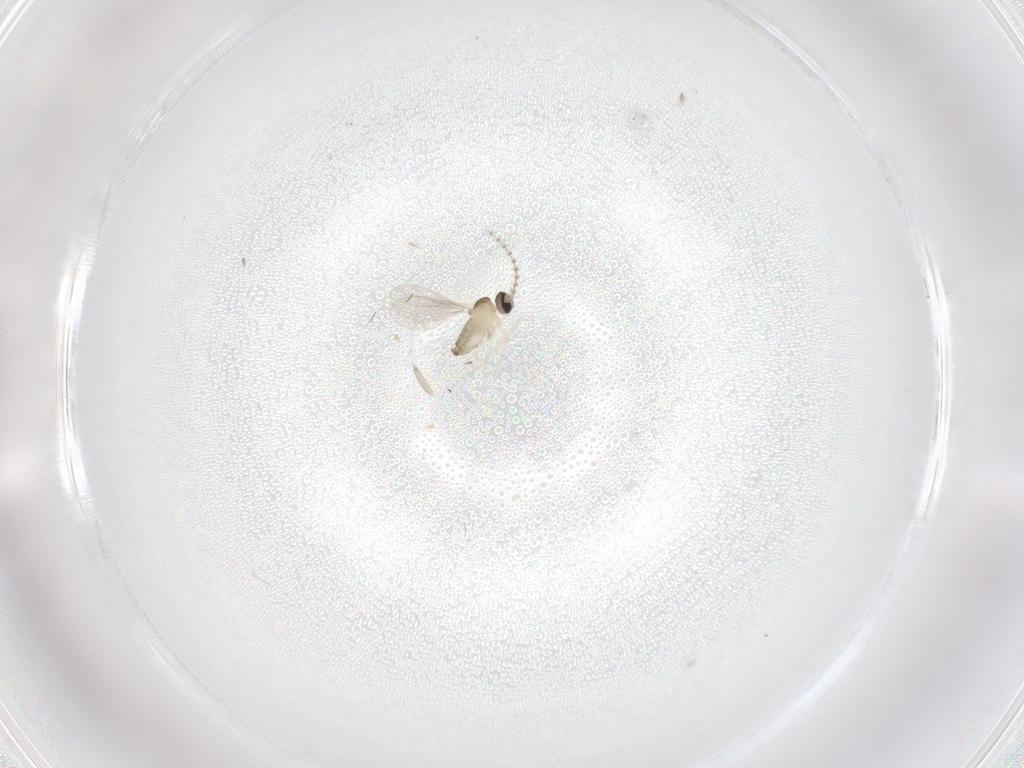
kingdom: Animalia
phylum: Arthropoda
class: Insecta
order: Diptera
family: Cecidomyiidae
